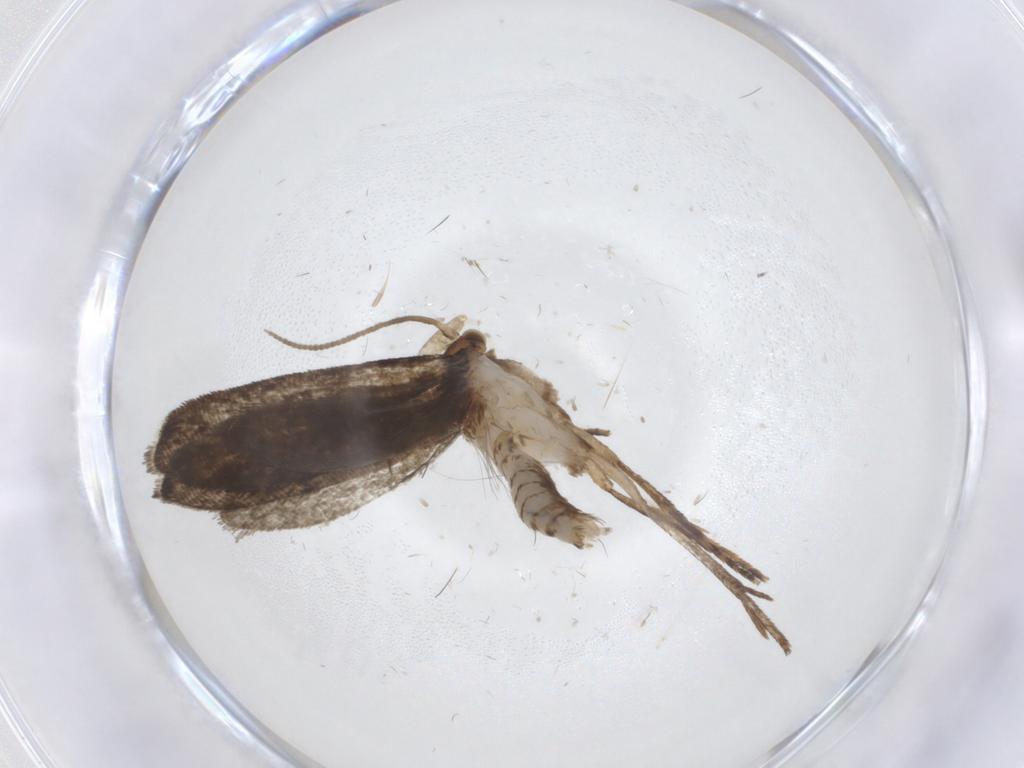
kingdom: Animalia
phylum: Arthropoda
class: Insecta
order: Lepidoptera
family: Tineidae
